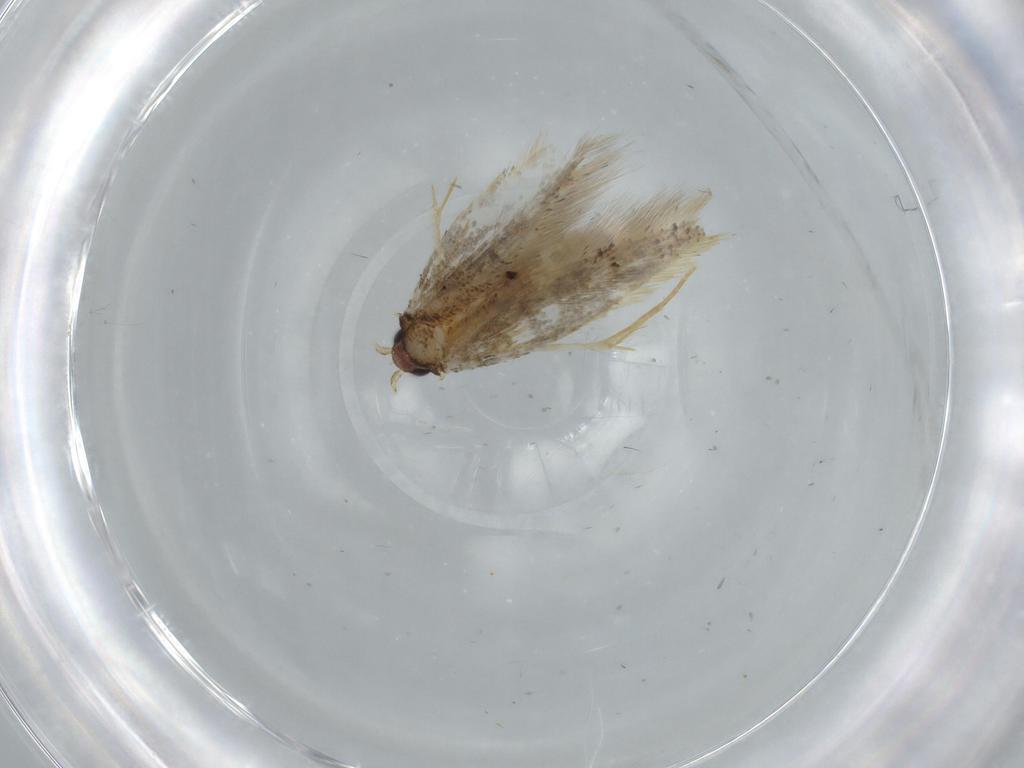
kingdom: Animalia
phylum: Arthropoda
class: Insecta
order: Lepidoptera
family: Tineidae
